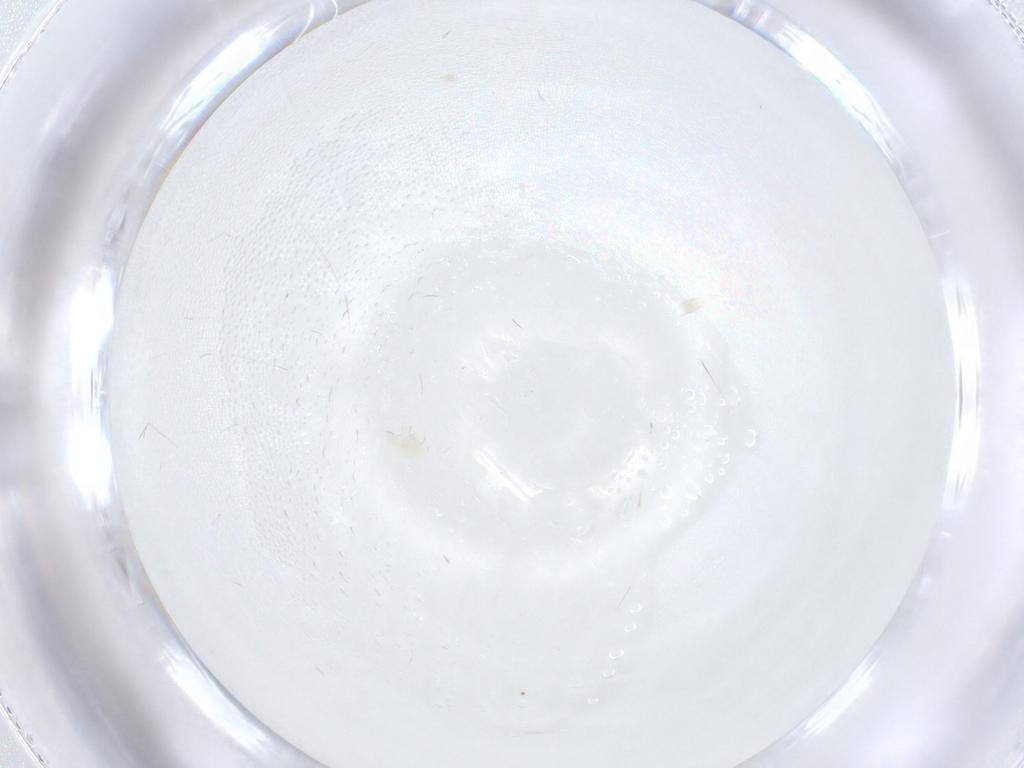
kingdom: Animalia
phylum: Arthropoda
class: Arachnida
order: Trombidiformes
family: Bdellidae
